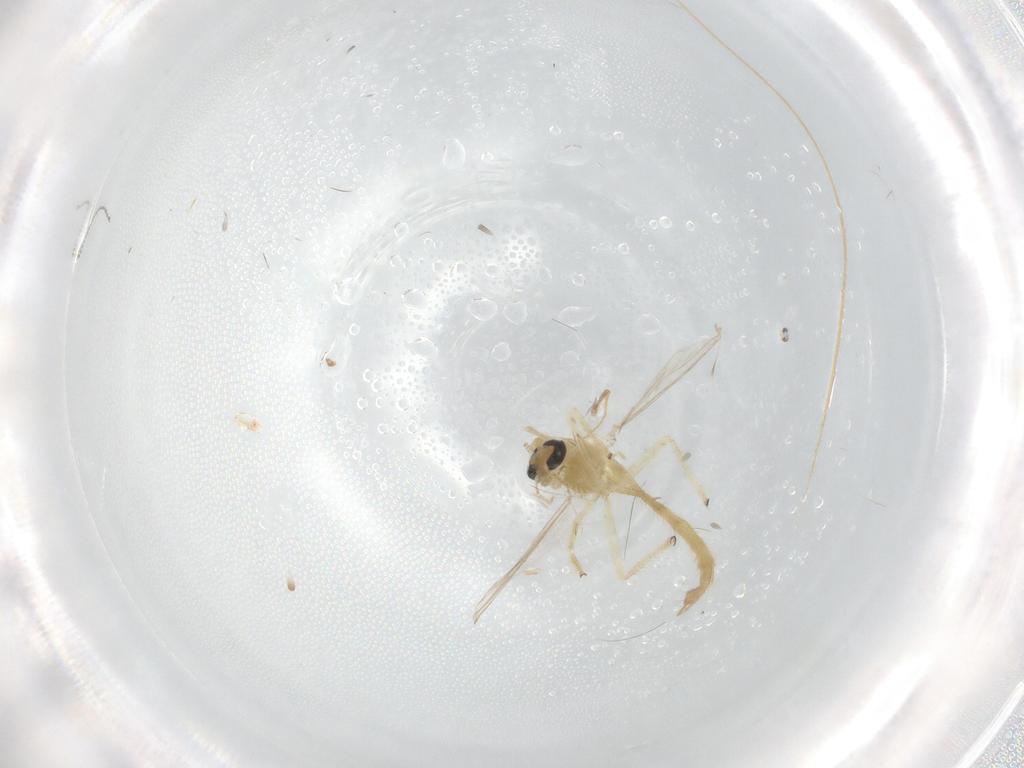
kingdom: Animalia
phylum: Arthropoda
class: Insecta
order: Diptera
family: Chironomidae
